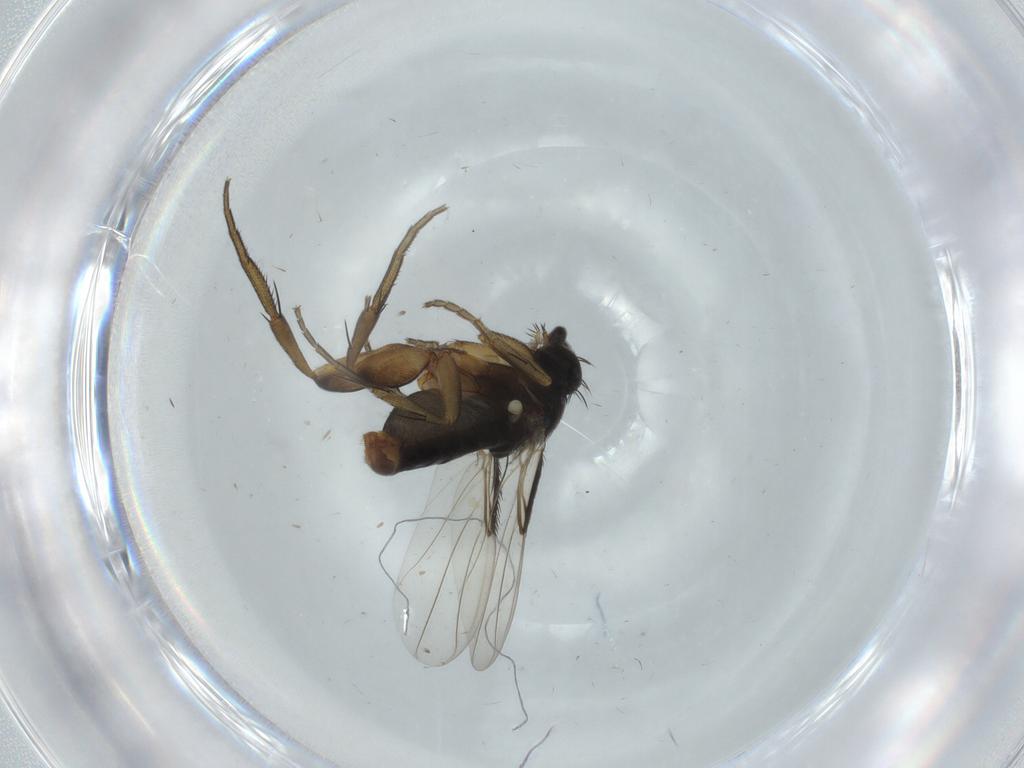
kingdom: Animalia
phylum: Arthropoda
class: Insecta
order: Diptera
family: Phoridae
